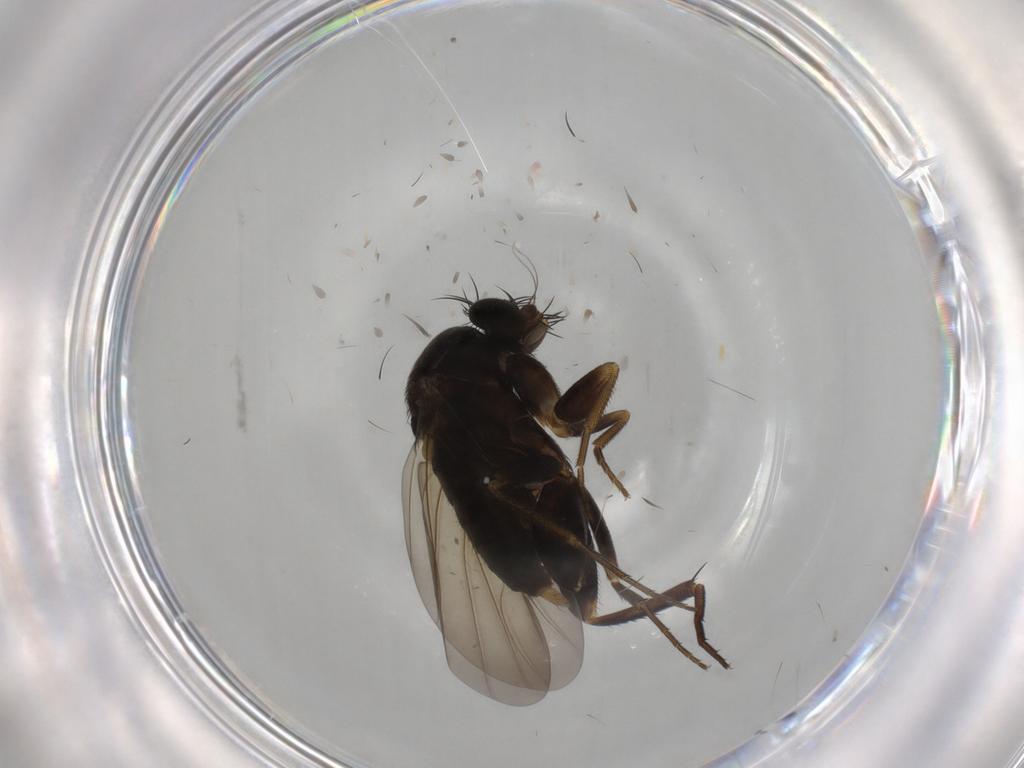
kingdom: Animalia
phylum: Arthropoda
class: Insecta
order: Diptera
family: Phoridae
